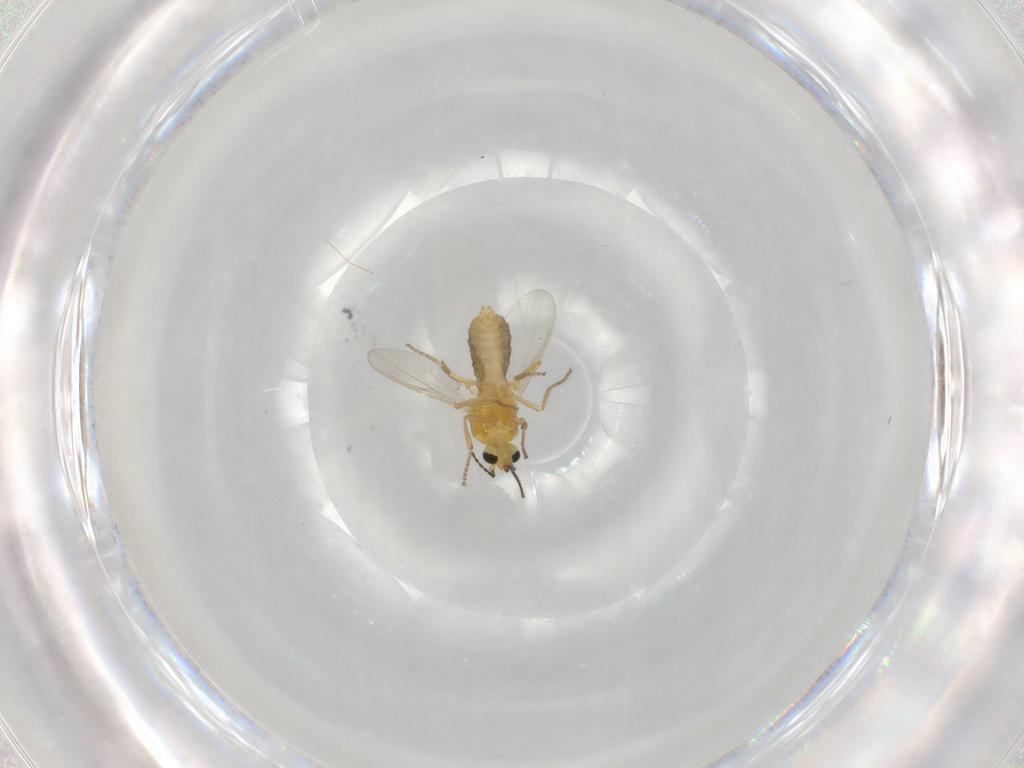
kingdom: Animalia
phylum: Arthropoda
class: Insecta
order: Diptera
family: Ceratopogonidae
